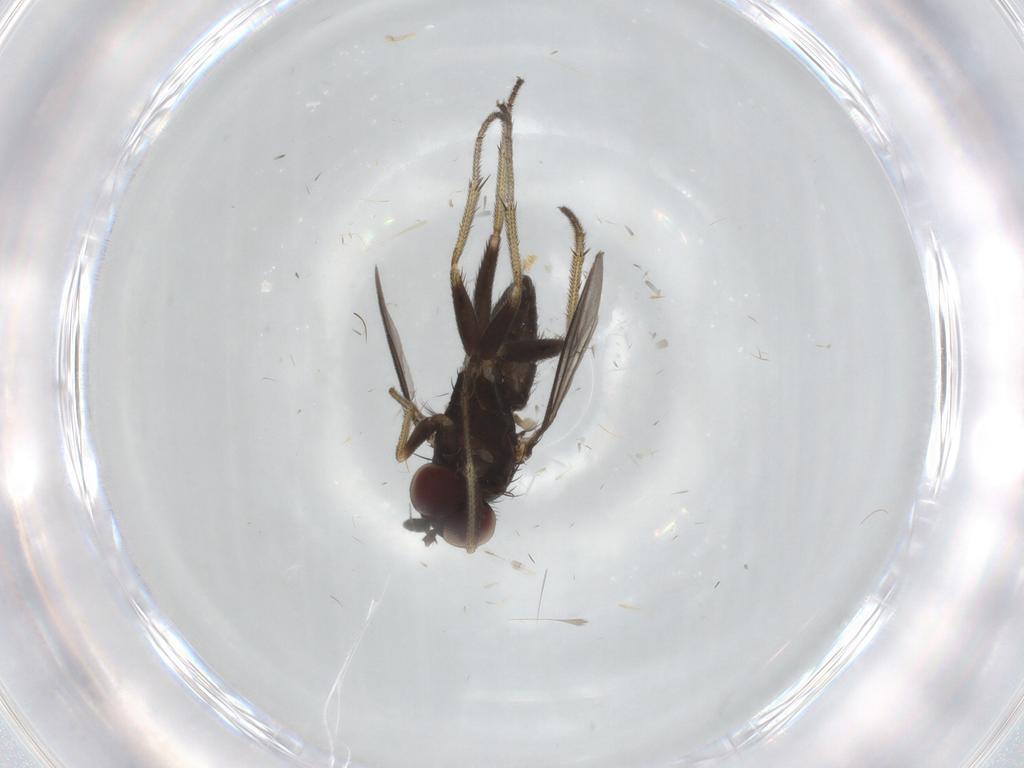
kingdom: Animalia
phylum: Arthropoda
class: Insecta
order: Diptera
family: Dolichopodidae
